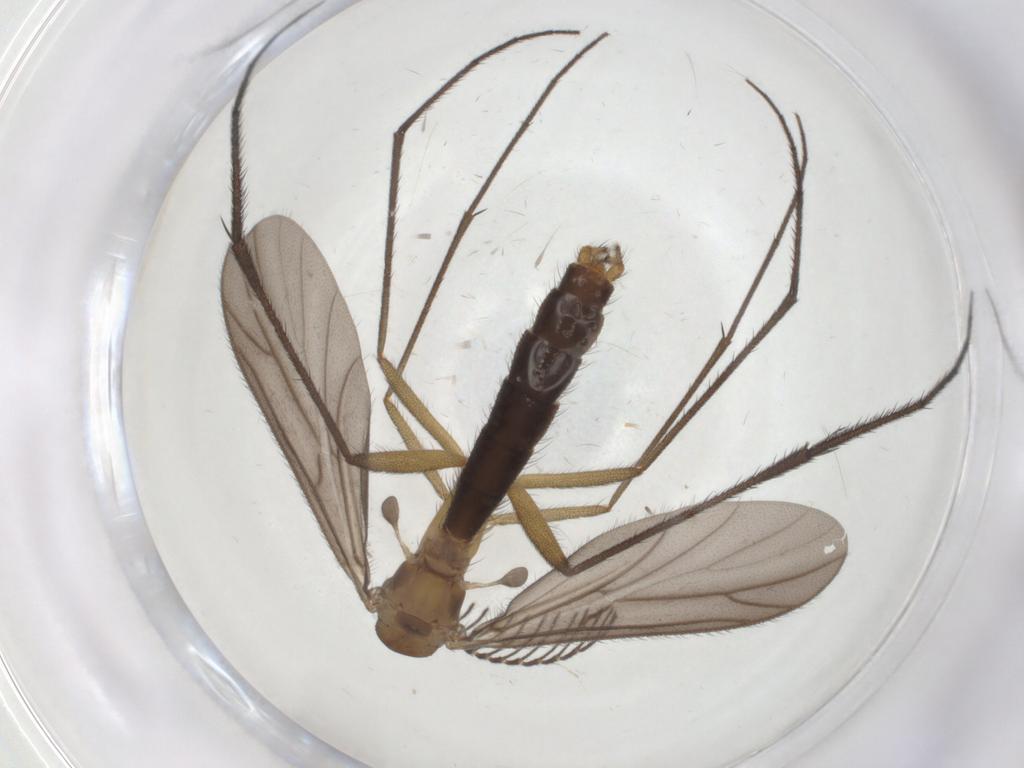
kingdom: Animalia
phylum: Arthropoda
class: Insecta
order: Diptera
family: Ditomyiidae
